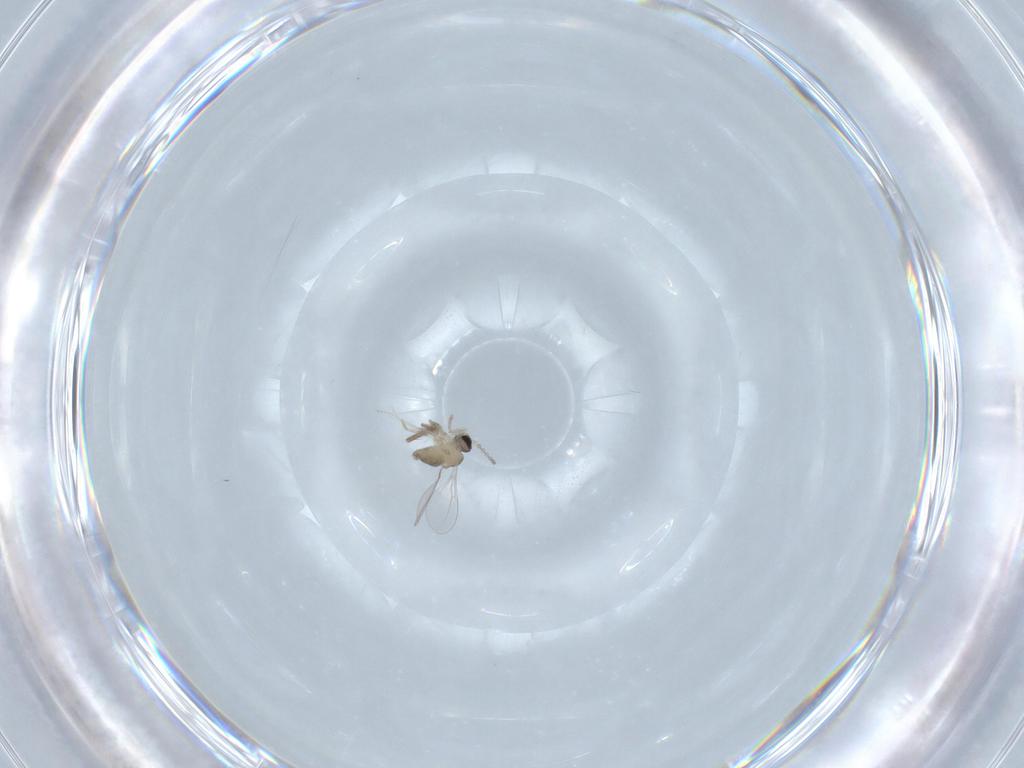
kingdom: Animalia
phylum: Arthropoda
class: Insecta
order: Diptera
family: Chironomidae
